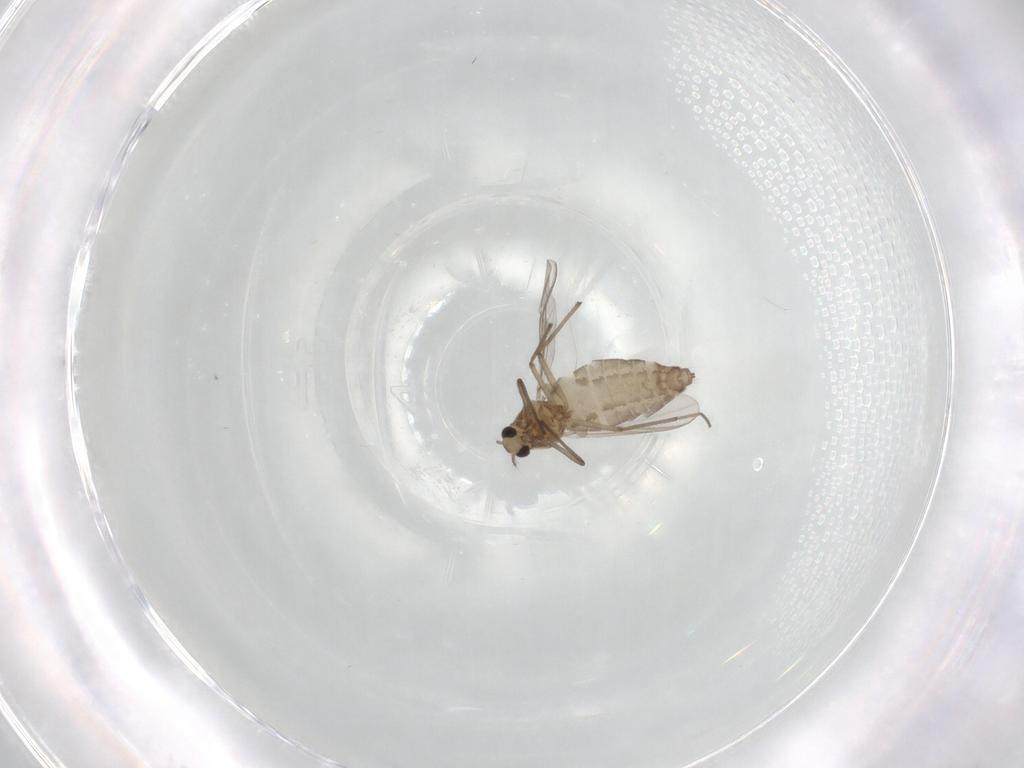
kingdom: Animalia
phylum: Arthropoda
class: Insecta
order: Diptera
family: Chironomidae
